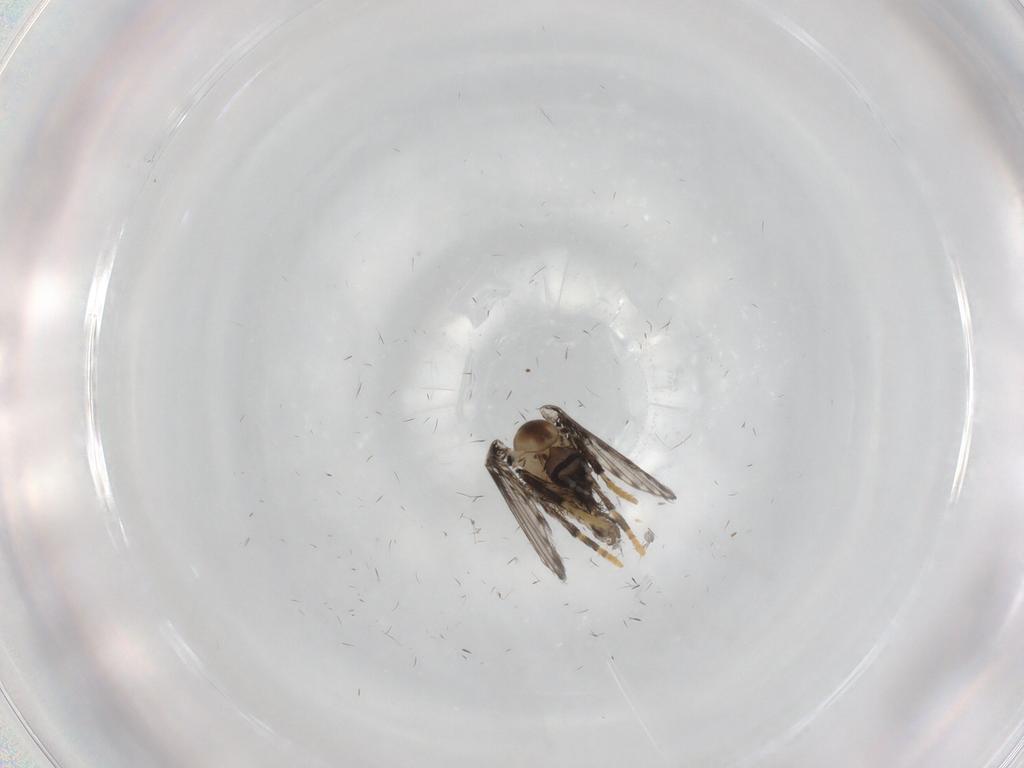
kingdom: Animalia
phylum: Arthropoda
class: Insecta
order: Diptera
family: Psychodidae
